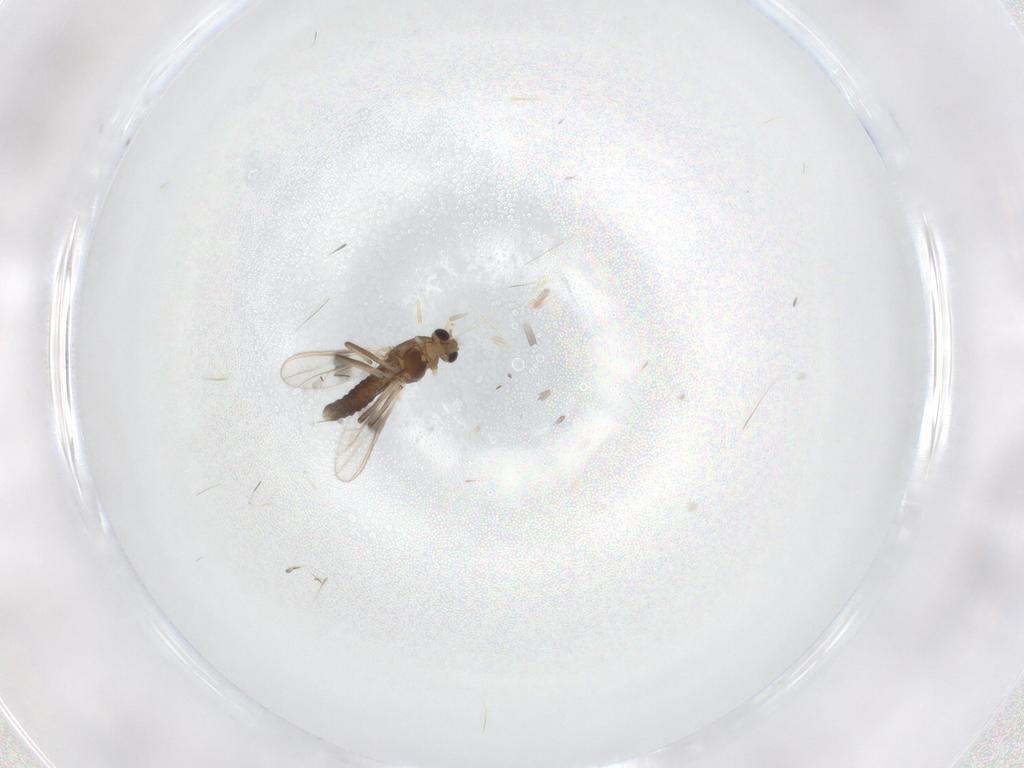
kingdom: Animalia
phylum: Arthropoda
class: Insecta
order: Diptera
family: Chironomidae
